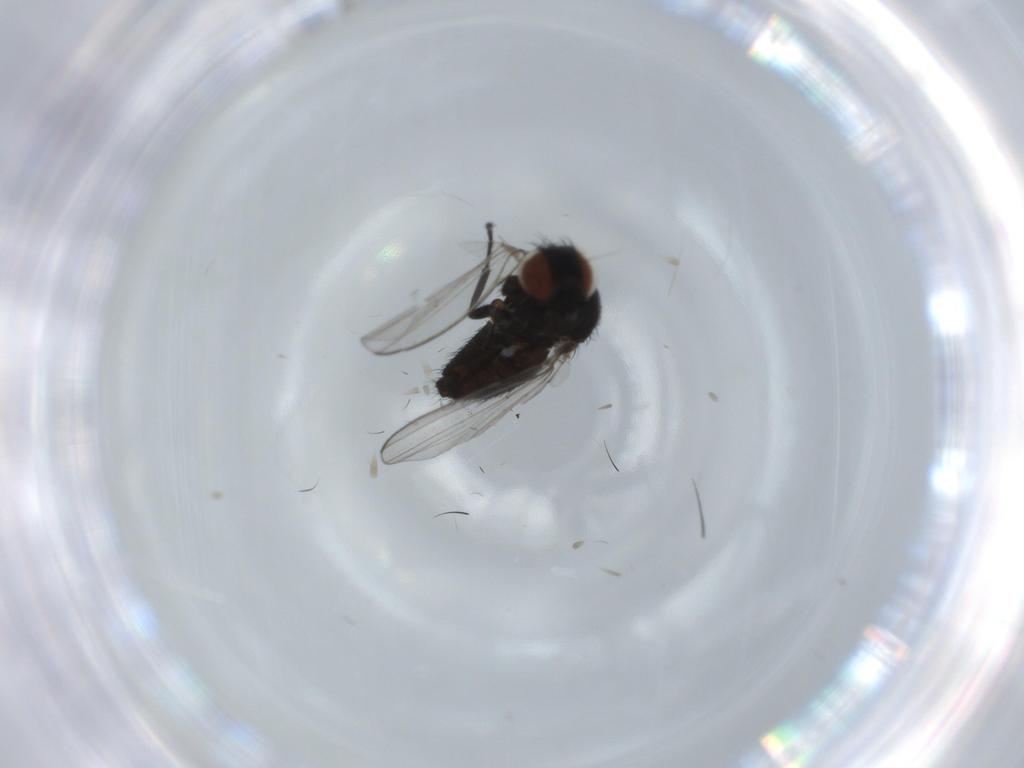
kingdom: Animalia
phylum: Arthropoda
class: Insecta
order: Diptera
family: Milichiidae
